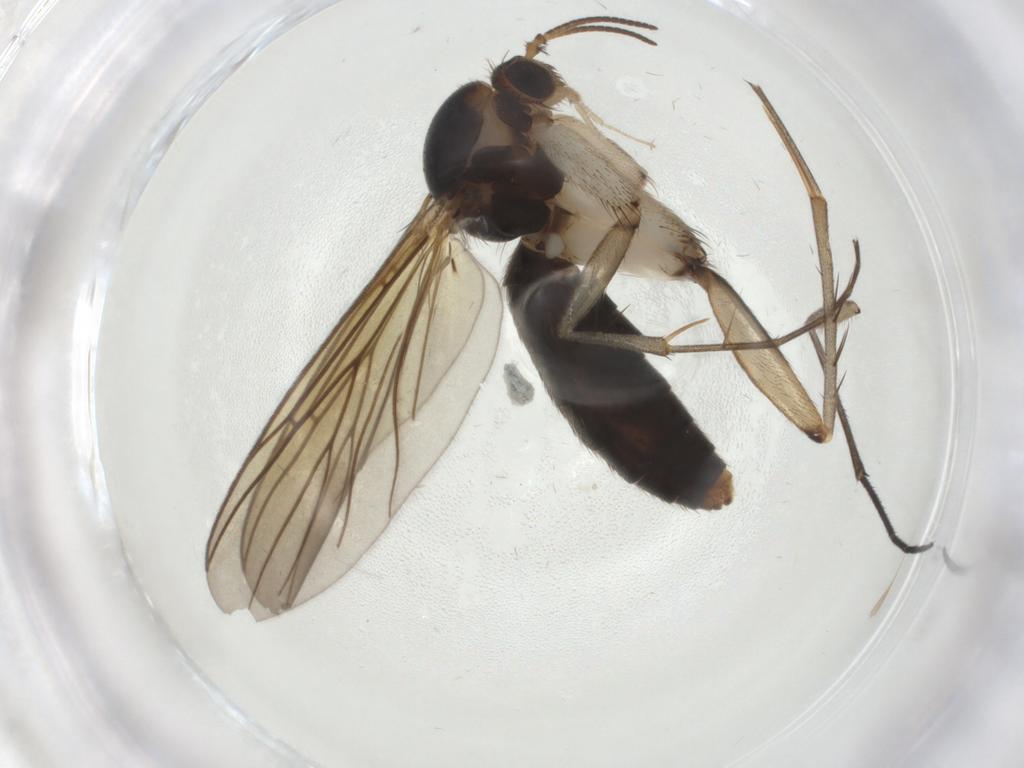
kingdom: Animalia
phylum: Arthropoda
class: Insecta
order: Diptera
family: Sciaridae
